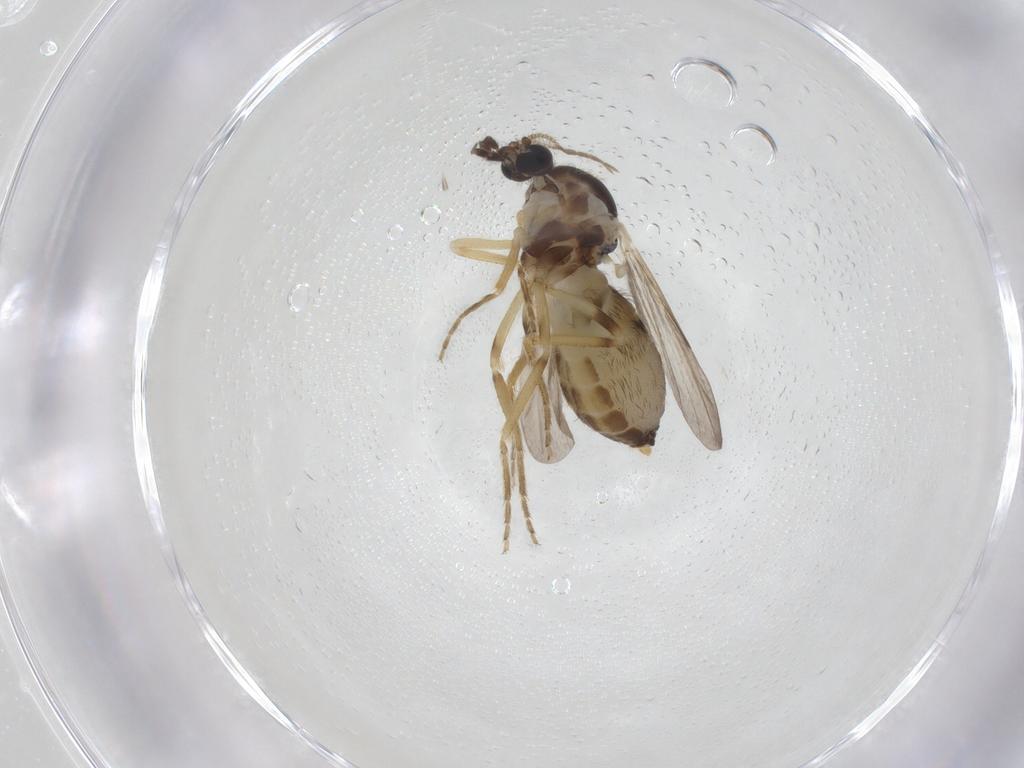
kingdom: Animalia
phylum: Arthropoda
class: Insecta
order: Diptera
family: Ceratopogonidae
